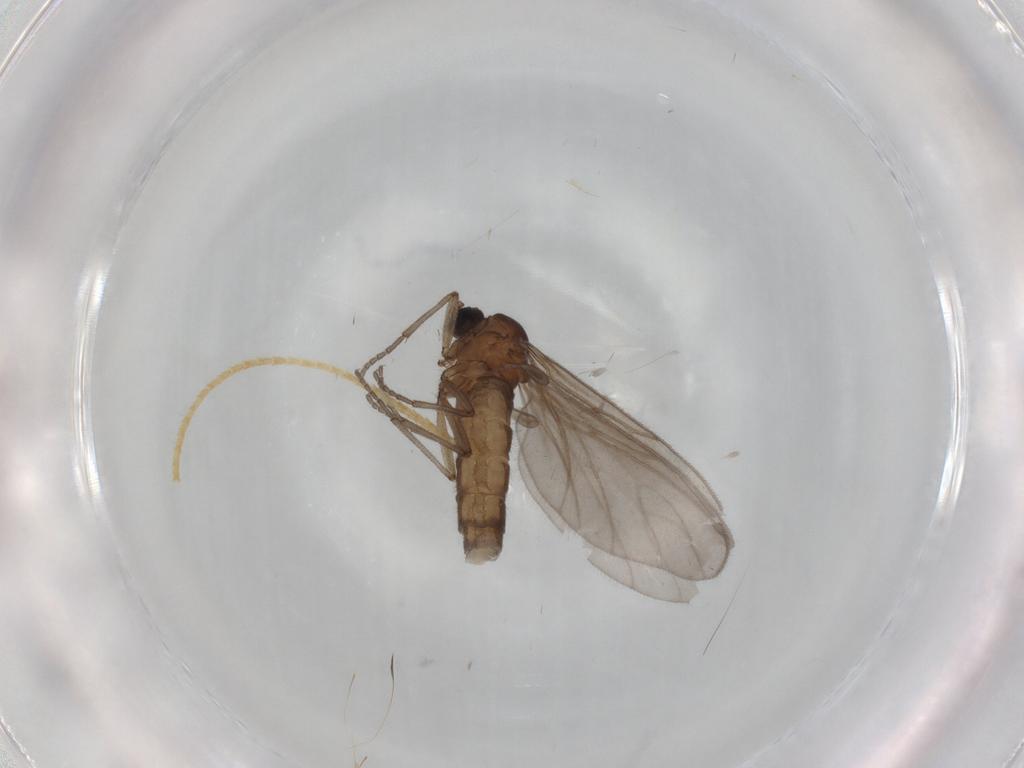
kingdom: Animalia
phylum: Arthropoda
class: Insecta
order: Diptera
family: Sciaridae
